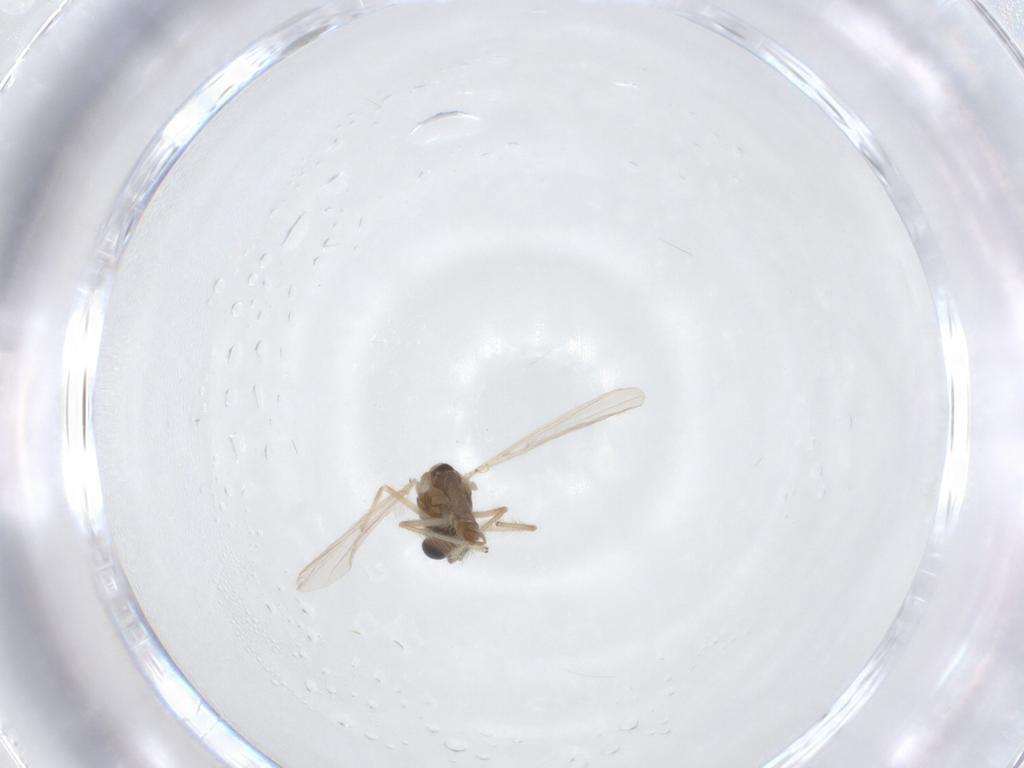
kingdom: Animalia
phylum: Arthropoda
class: Insecta
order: Diptera
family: Chironomidae
